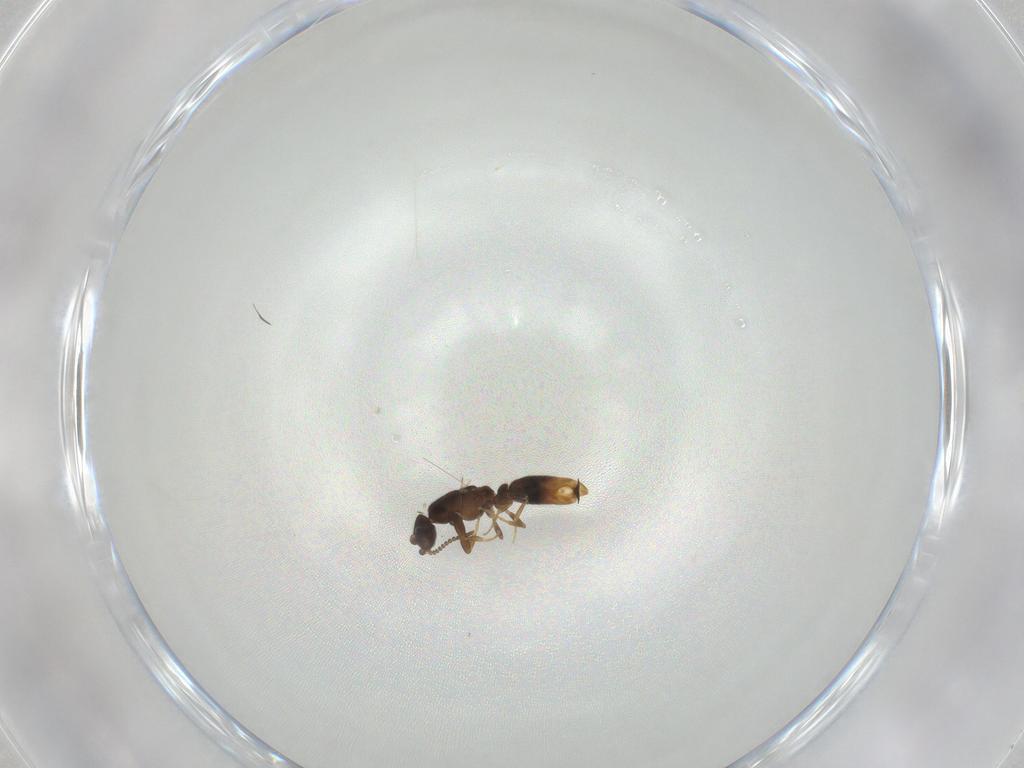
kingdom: Animalia
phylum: Arthropoda
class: Insecta
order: Hymenoptera
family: Formicidae
